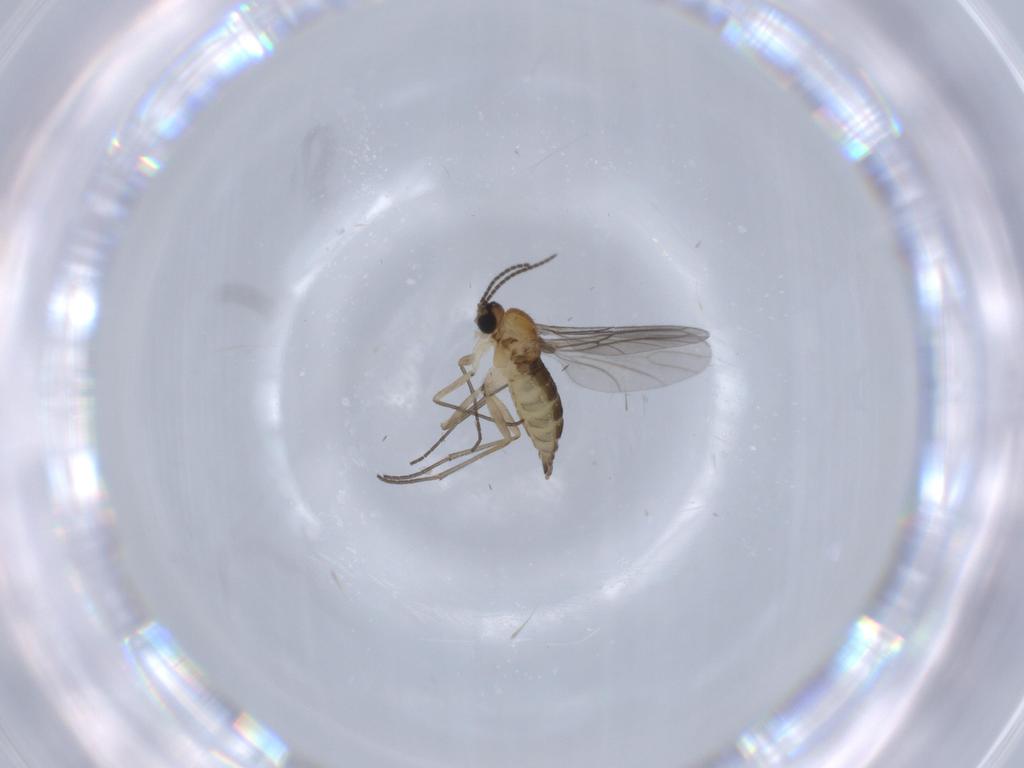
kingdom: Animalia
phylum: Arthropoda
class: Insecta
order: Diptera
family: Sciaridae
